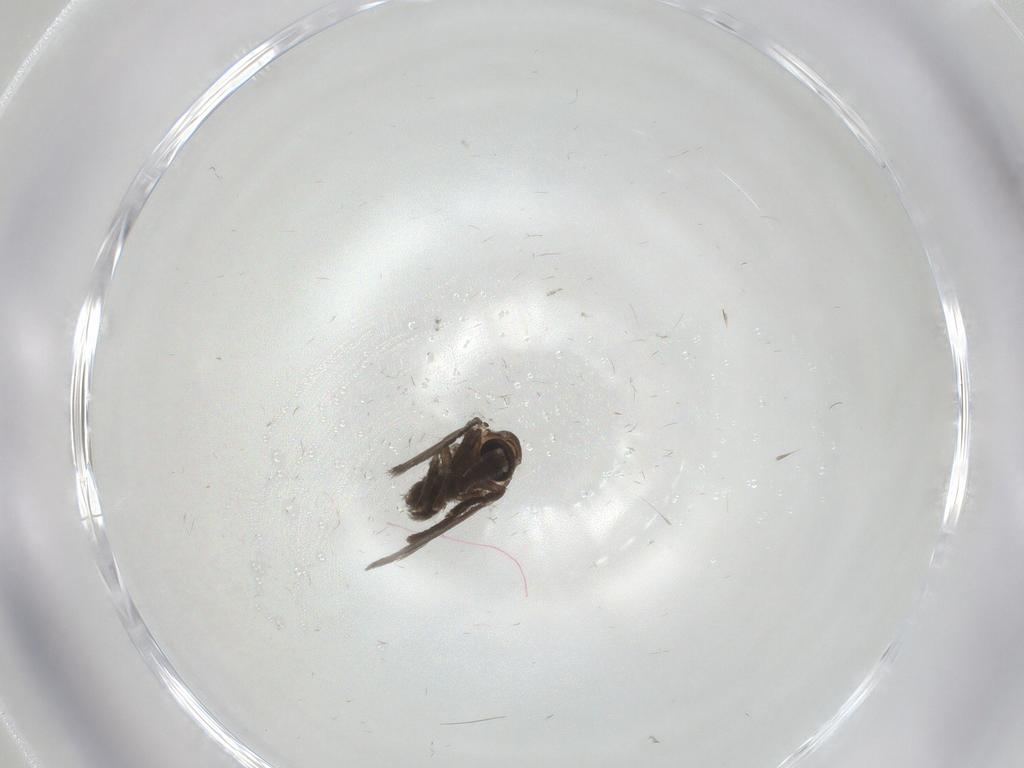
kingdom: Animalia
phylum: Arthropoda
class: Insecta
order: Diptera
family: Psychodidae
